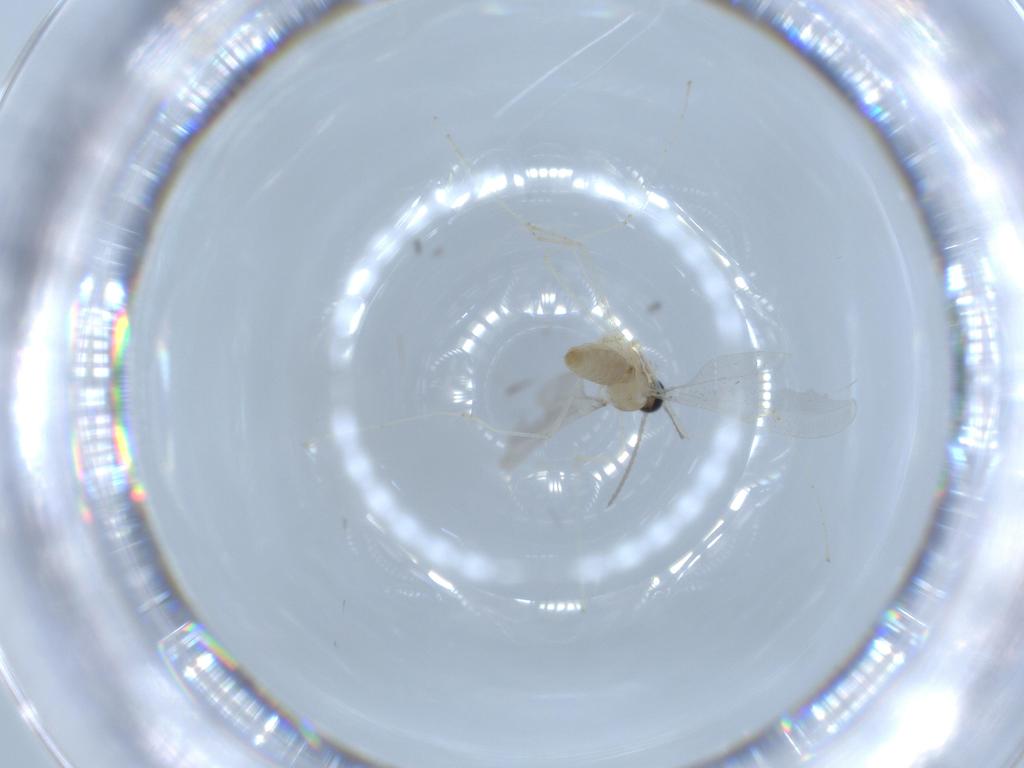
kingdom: Animalia
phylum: Arthropoda
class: Insecta
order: Diptera
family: Cecidomyiidae
